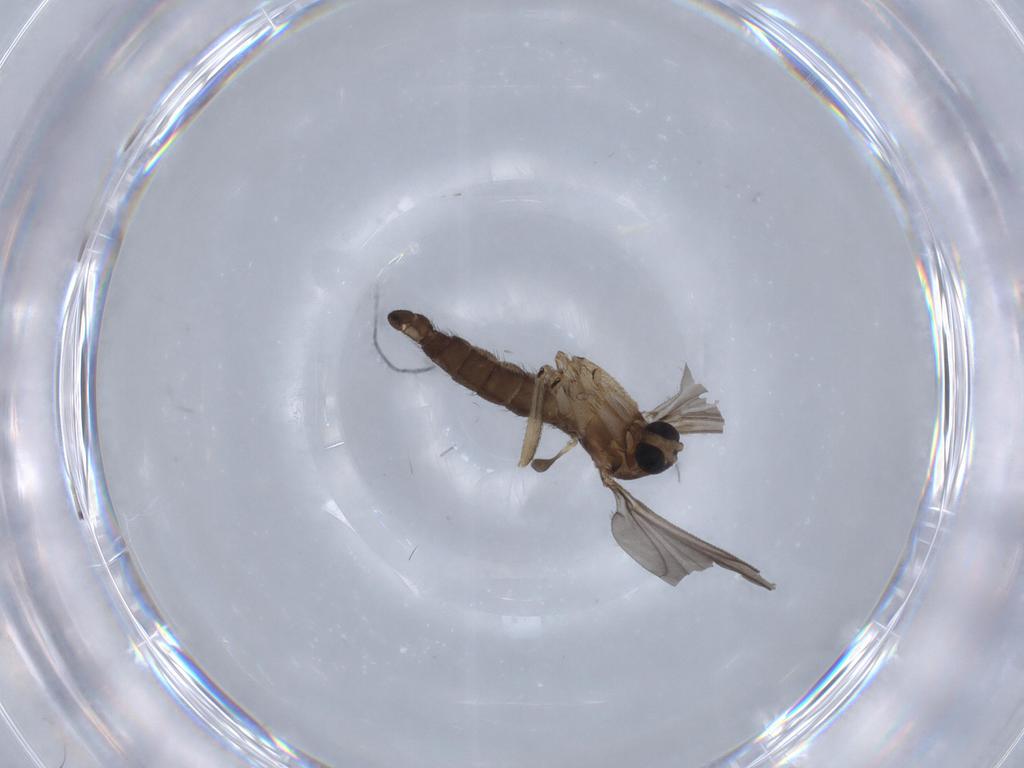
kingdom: Animalia
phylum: Arthropoda
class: Insecta
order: Diptera
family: Sciaridae
